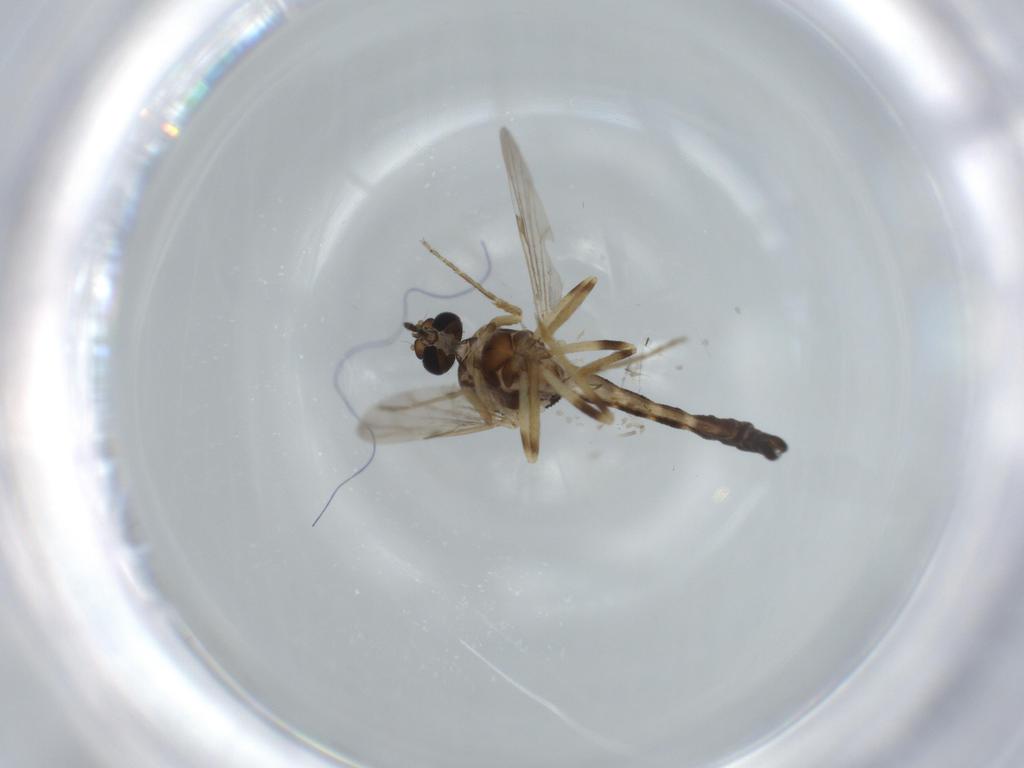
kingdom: Animalia
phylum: Arthropoda
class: Insecta
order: Diptera
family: Ceratopogonidae
